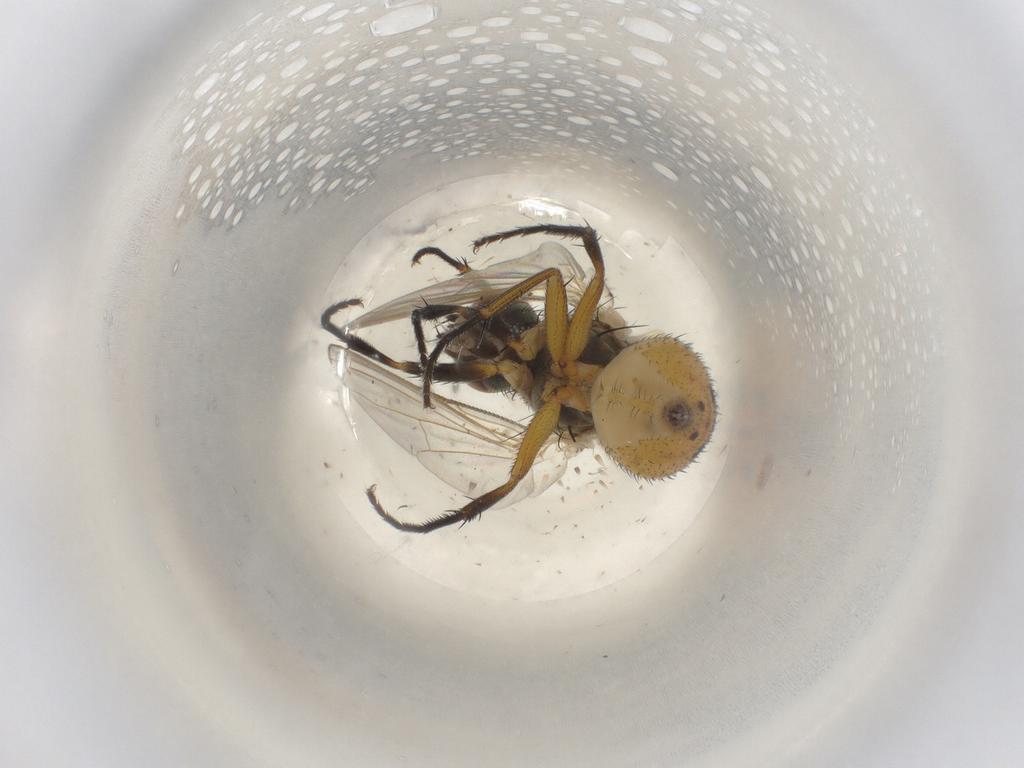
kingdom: Animalia
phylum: Arthropoda
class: Insecta
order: Diptera
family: Muscidae
